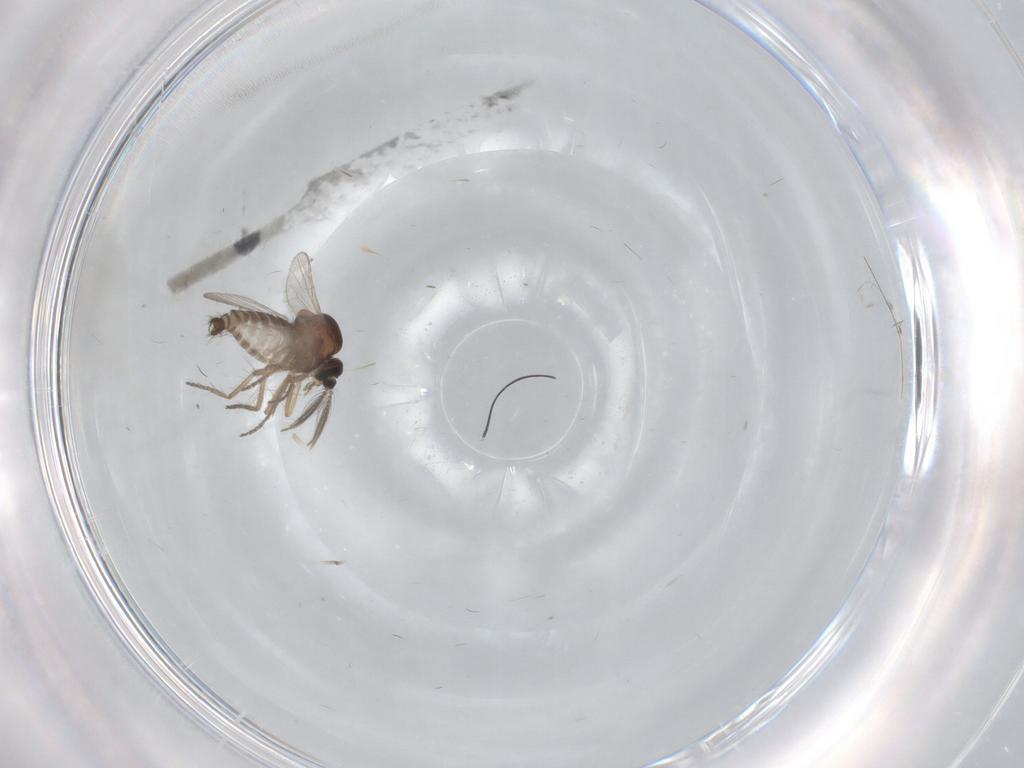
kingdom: Animalia
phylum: Arthropoda
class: Insecta
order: Diptera
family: Ceratopogonidae
